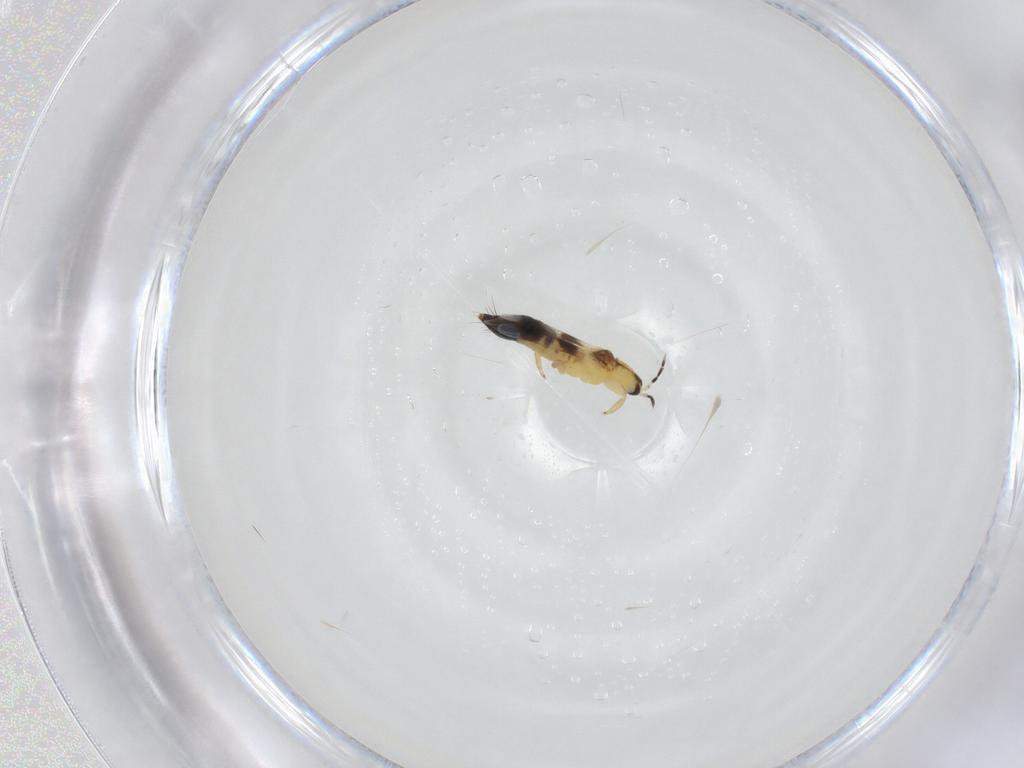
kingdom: Animalia
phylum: Arthropoda
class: Insecta
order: Thysanoptera
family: Aeolothripidae
